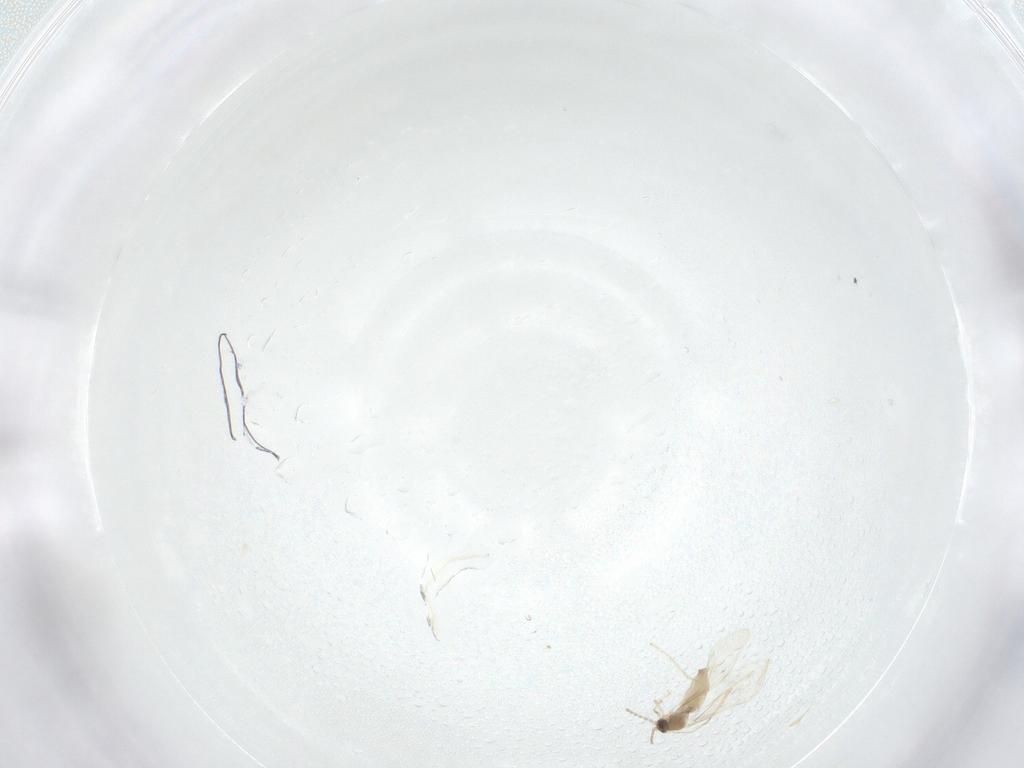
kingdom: Animalia
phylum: Arthropoda
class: Insecta
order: Diptera
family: Cecidomyiidae
